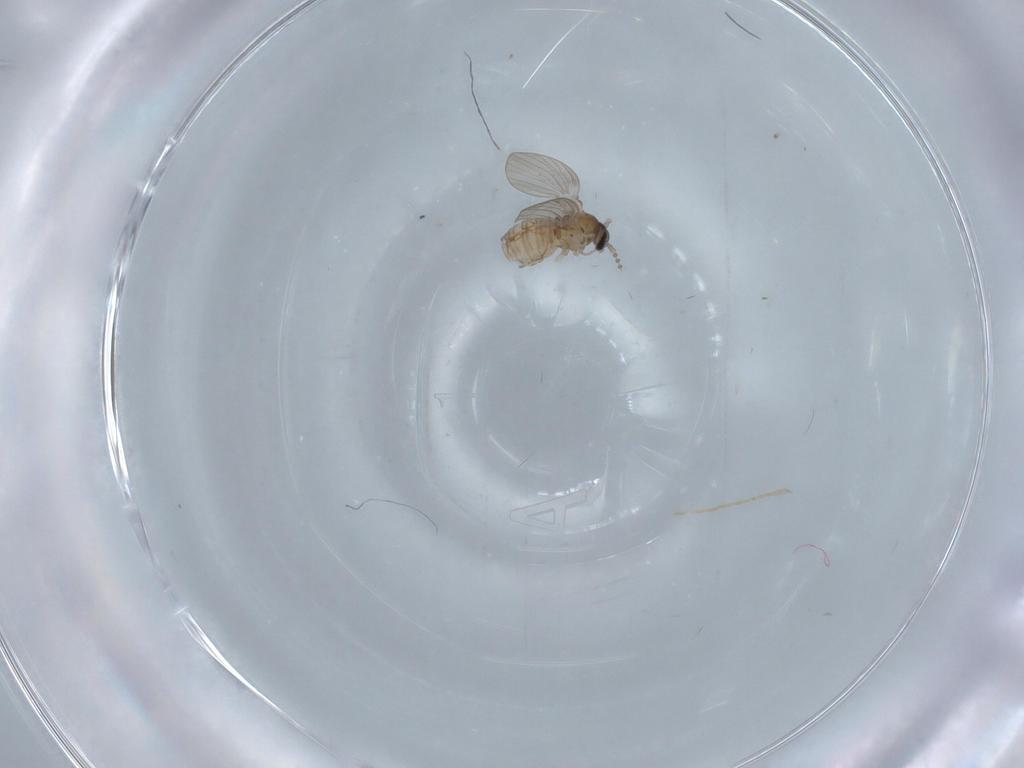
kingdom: Animalia
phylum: Arthropoda
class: Insecta
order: Diptera
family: Psychodidae
